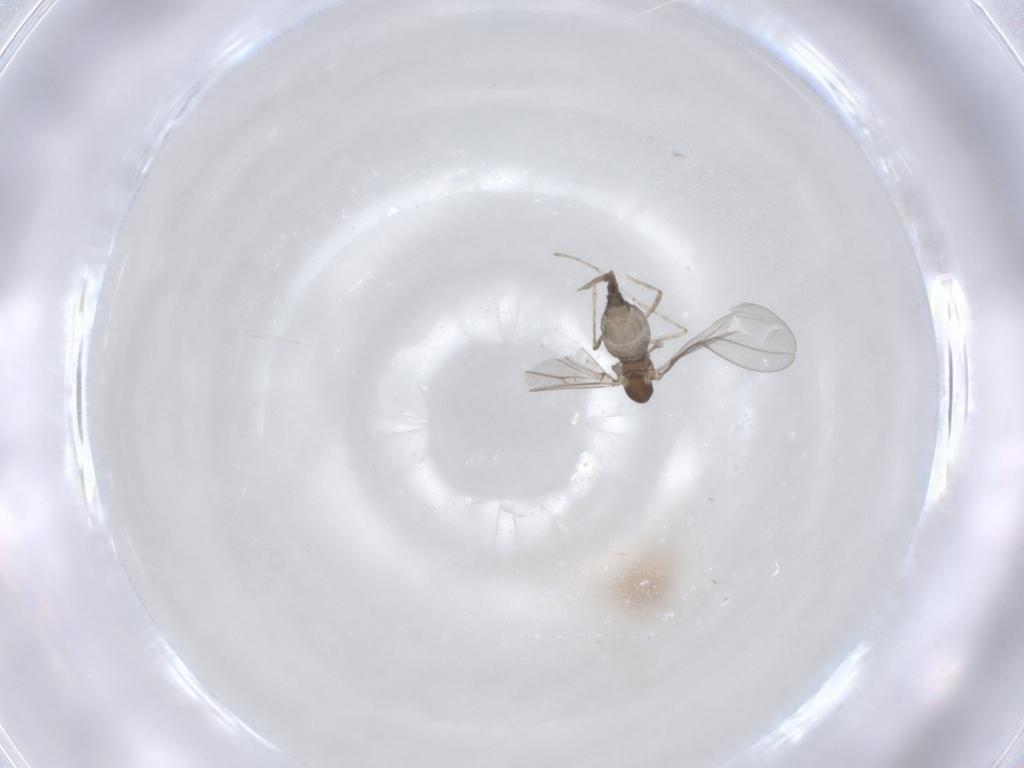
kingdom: Animalia
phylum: Arthropoda
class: Insecta
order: Diptera
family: Cecidomyiidae
